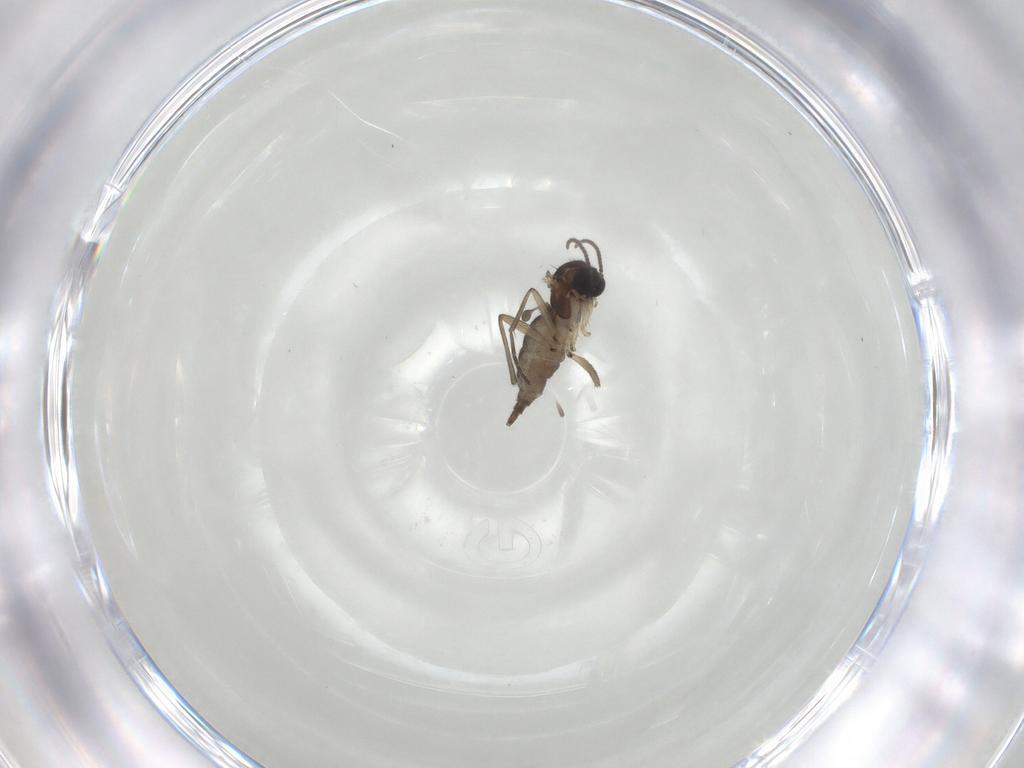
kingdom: Animalia
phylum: Arthropoda
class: Insecta
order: Diptera
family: Sciaridae
